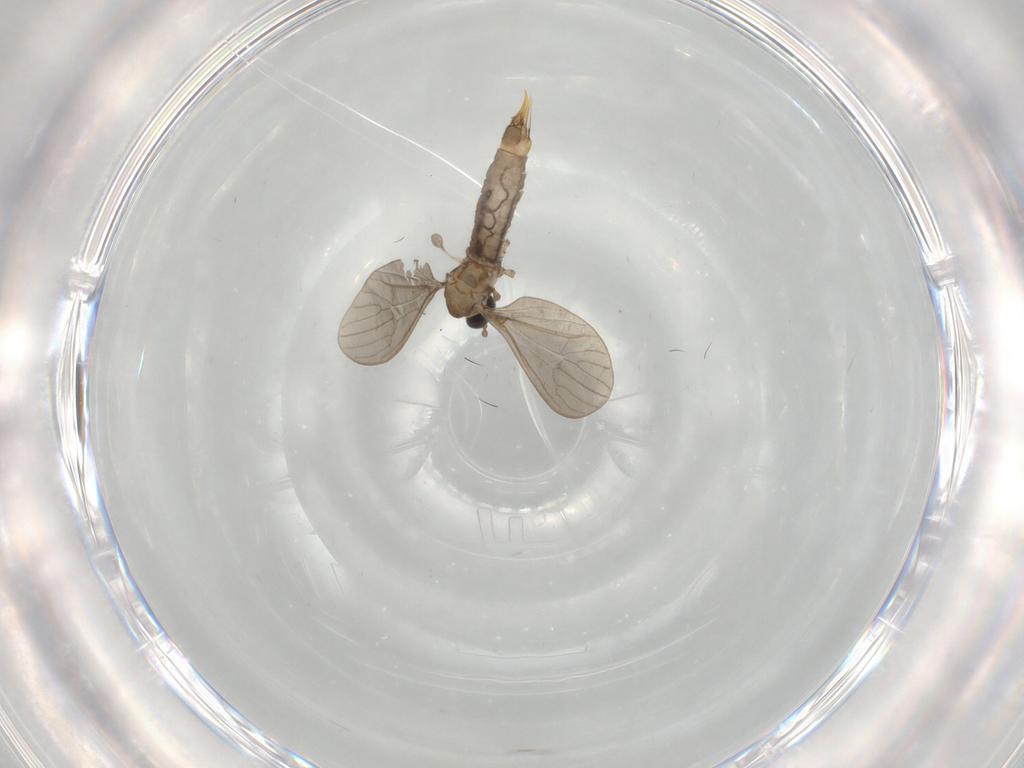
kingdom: Animalia
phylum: Arthropoda
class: Insecta
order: Diptera
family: Limoniidae
